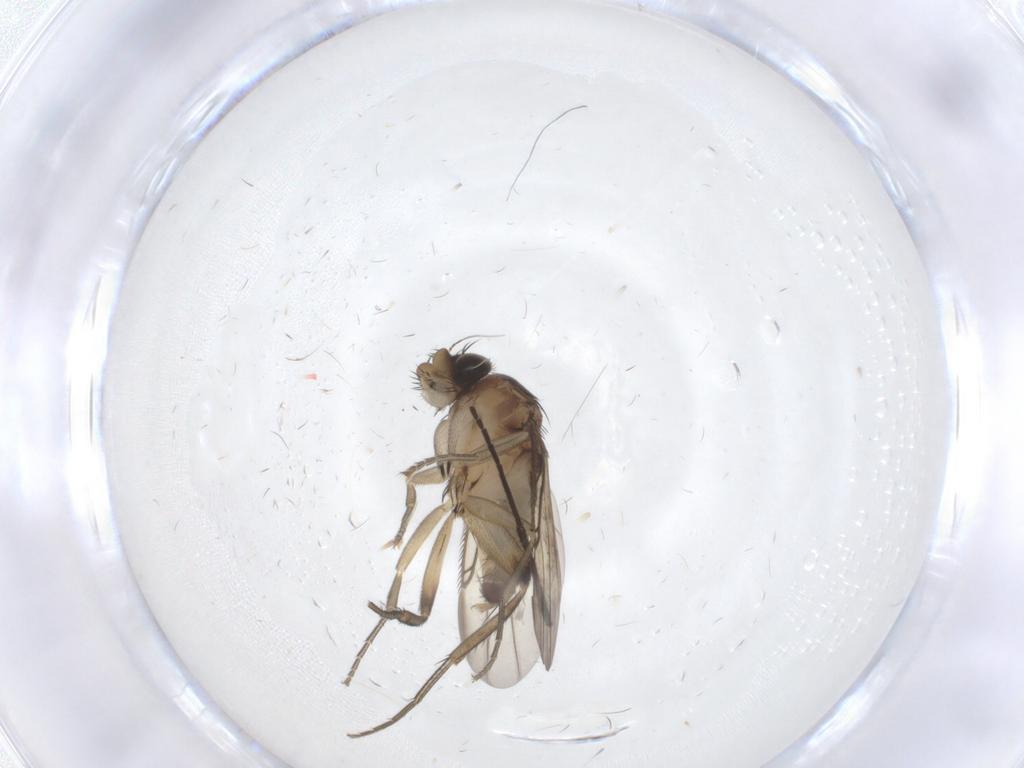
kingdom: Animalia
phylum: Arthropoda
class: Insecta
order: Diptera
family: Phoridae
